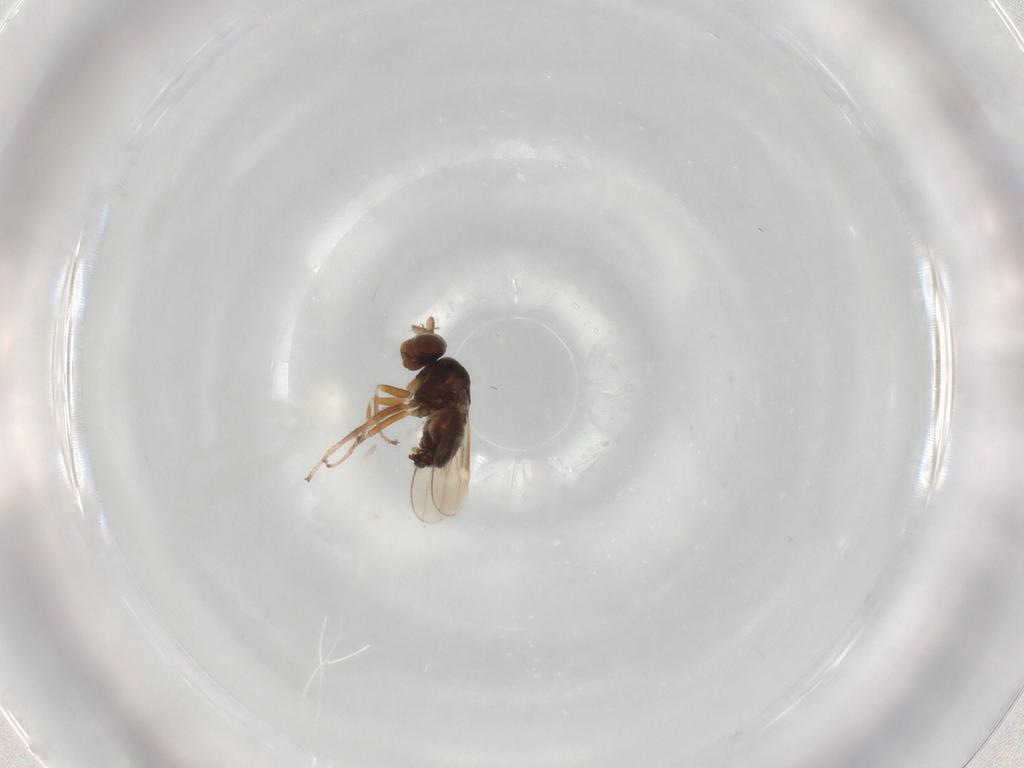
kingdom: Animalia
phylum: Arthropoda
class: Insecta
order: Diptera
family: Ephydridae
